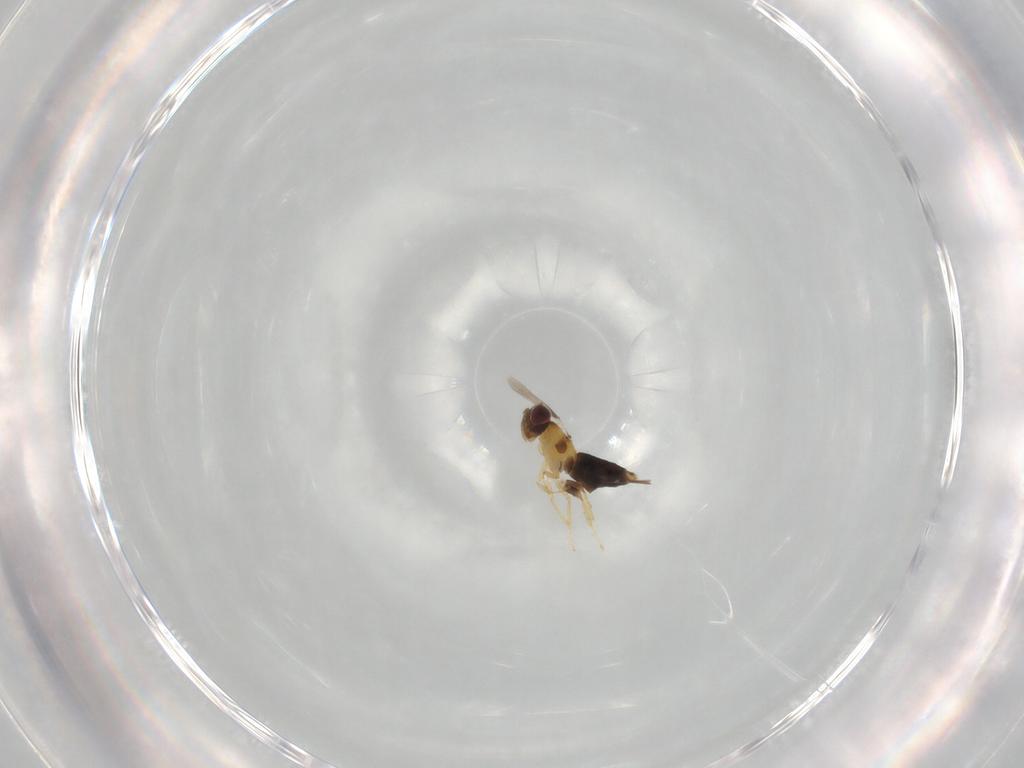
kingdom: Animalia
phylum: Arthropoda
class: Insecta
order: Hymenoptera
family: Aphelinidae
